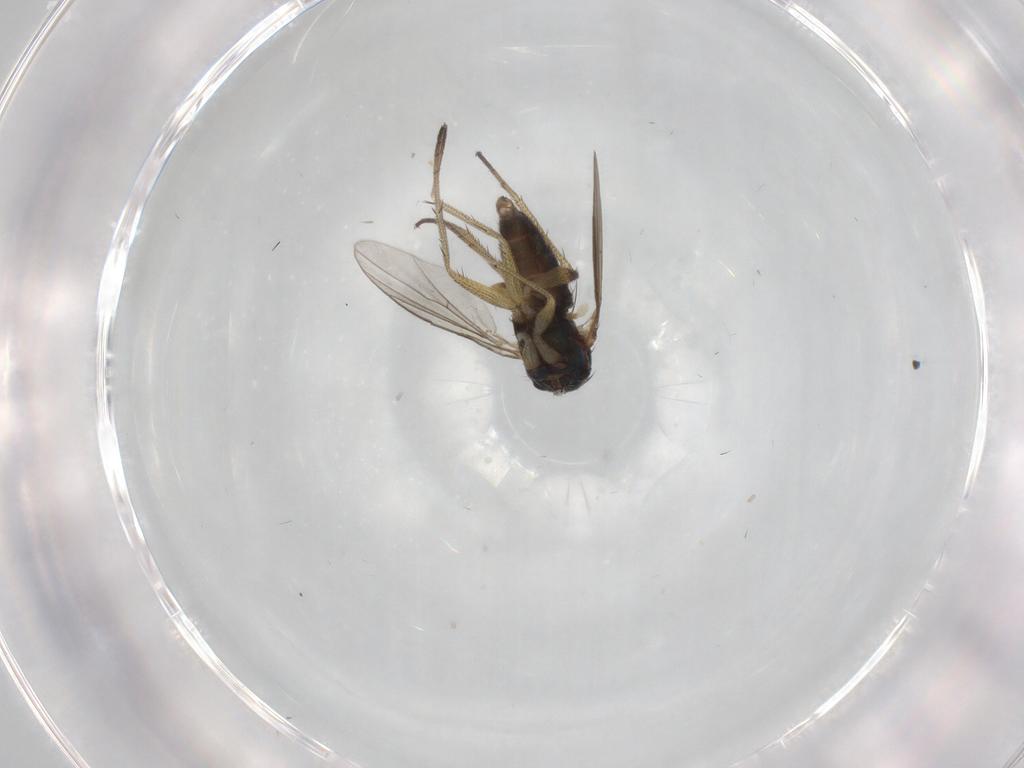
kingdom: Animalia
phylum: Arthropoda
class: Insecta
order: Diptera
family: Dolichopodidae
